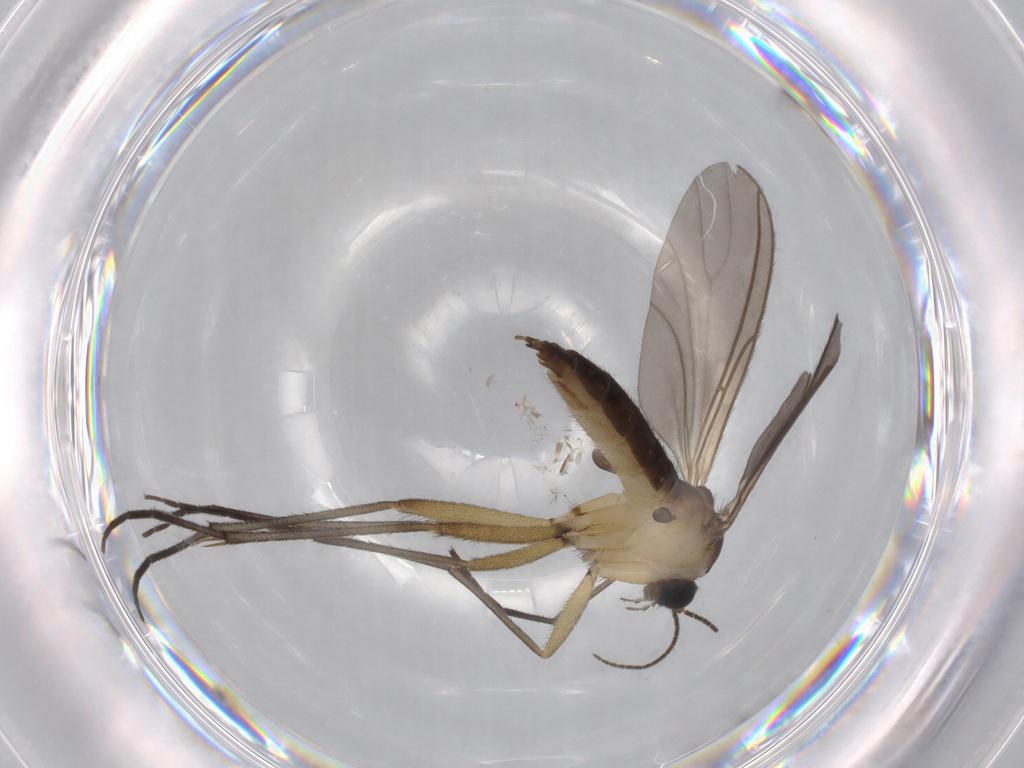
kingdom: Animalia
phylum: Arthropoda
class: Insecta
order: Diptera
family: Sciaridae
